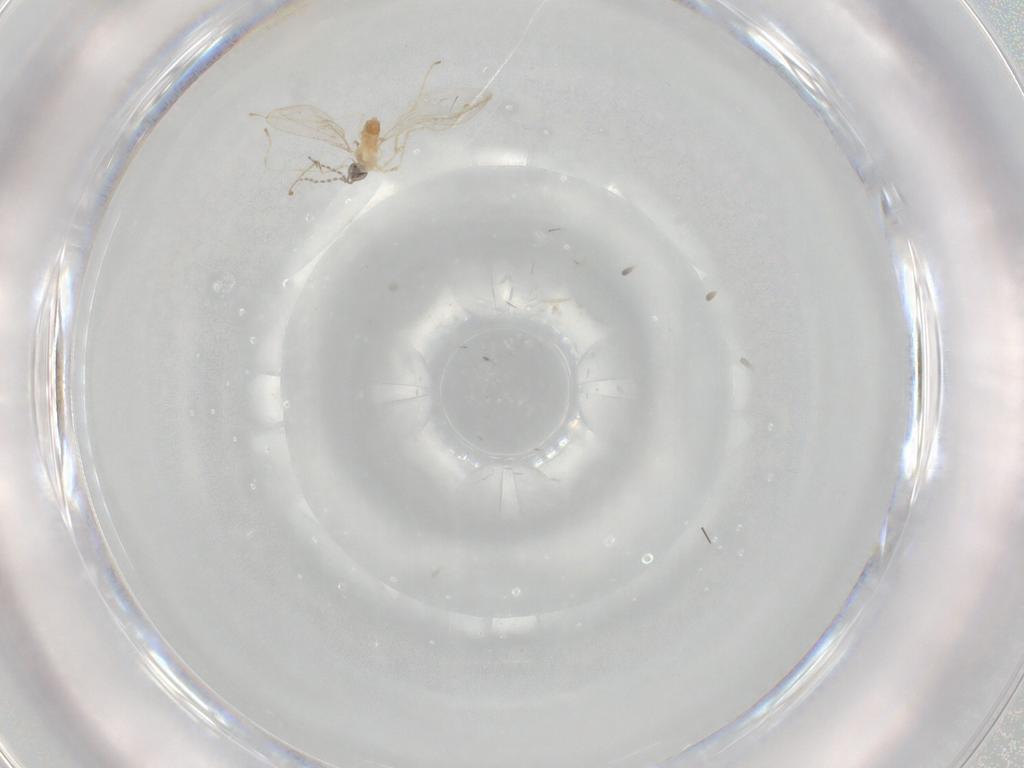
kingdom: Animalia
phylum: Arthropoda
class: Insecta
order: Diptera
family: Cecidomyiidae
